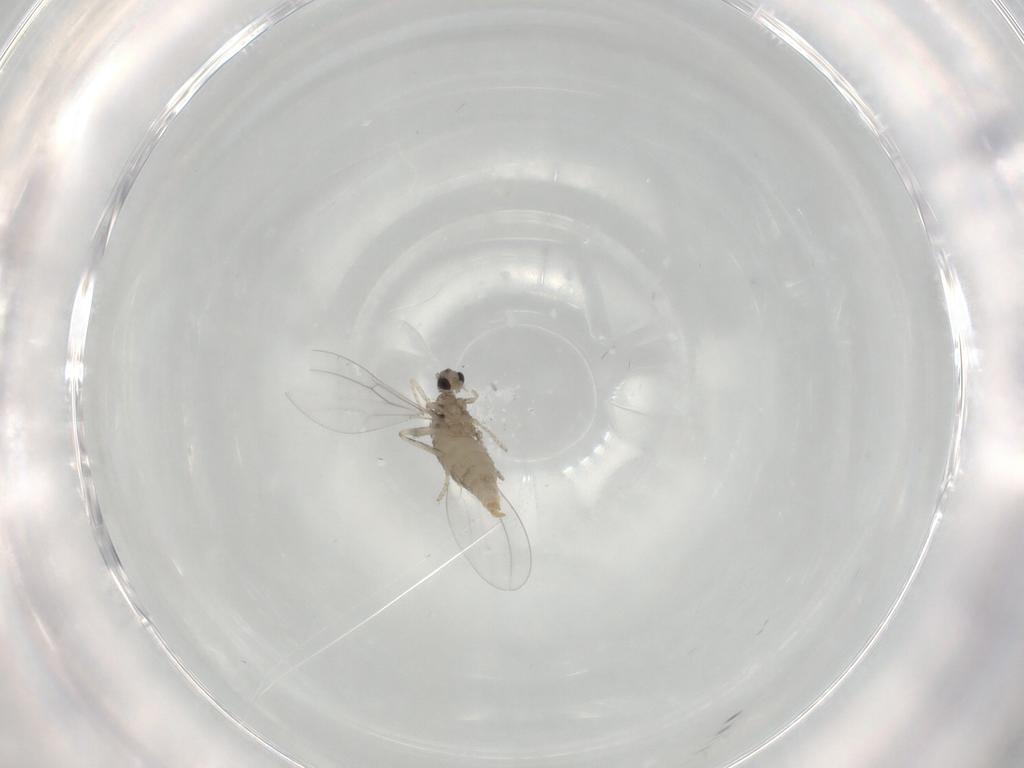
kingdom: Animalia
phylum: Arthropoda
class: Insecta
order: Diptera
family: Cecidomyiidae
